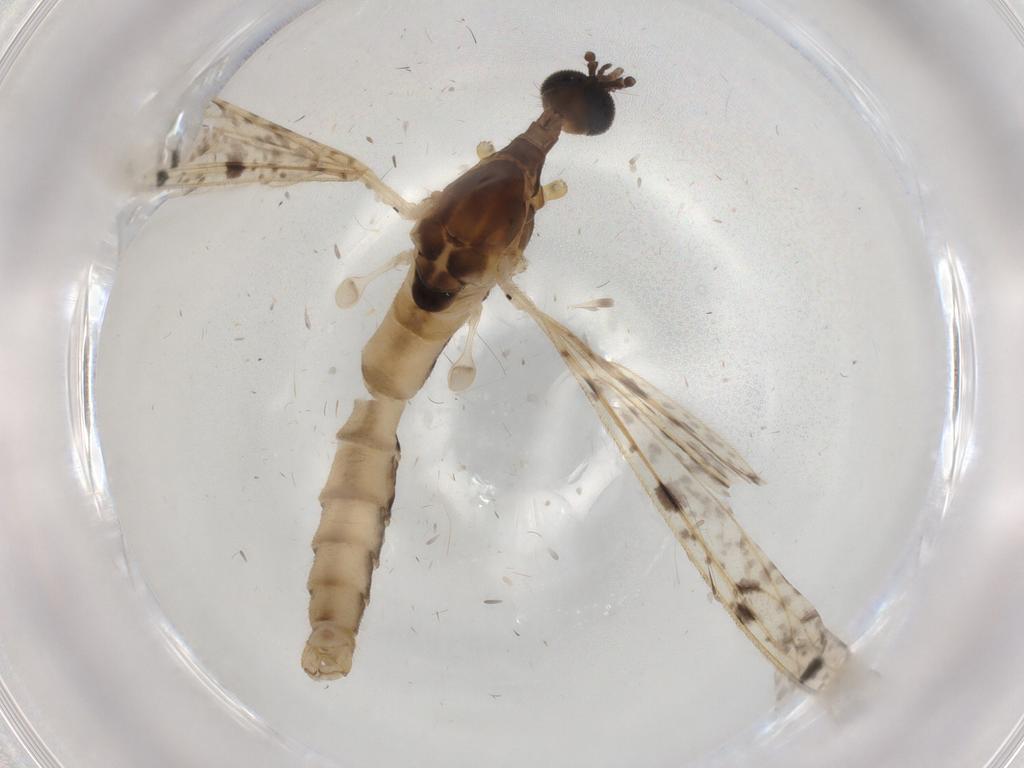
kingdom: Animalia
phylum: Arthropoda
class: Insecta
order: Diptera
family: Limoniidae
